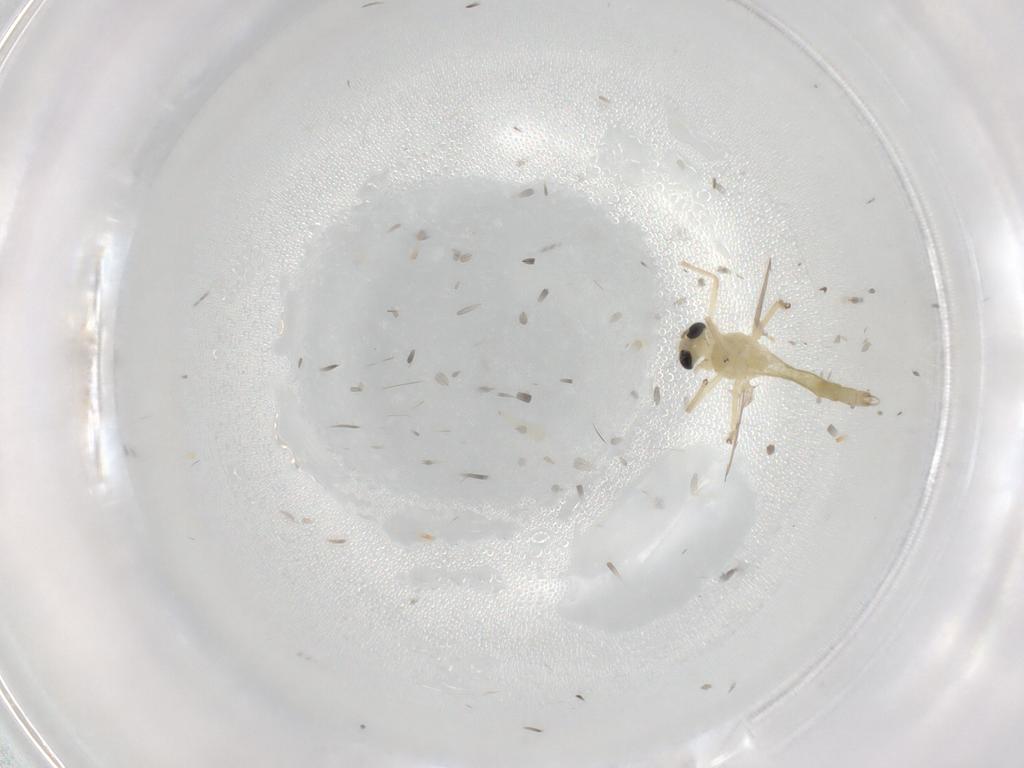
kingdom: Animalia
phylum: Arthropoda
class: Insecta
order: Diptera
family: Chironomidae
